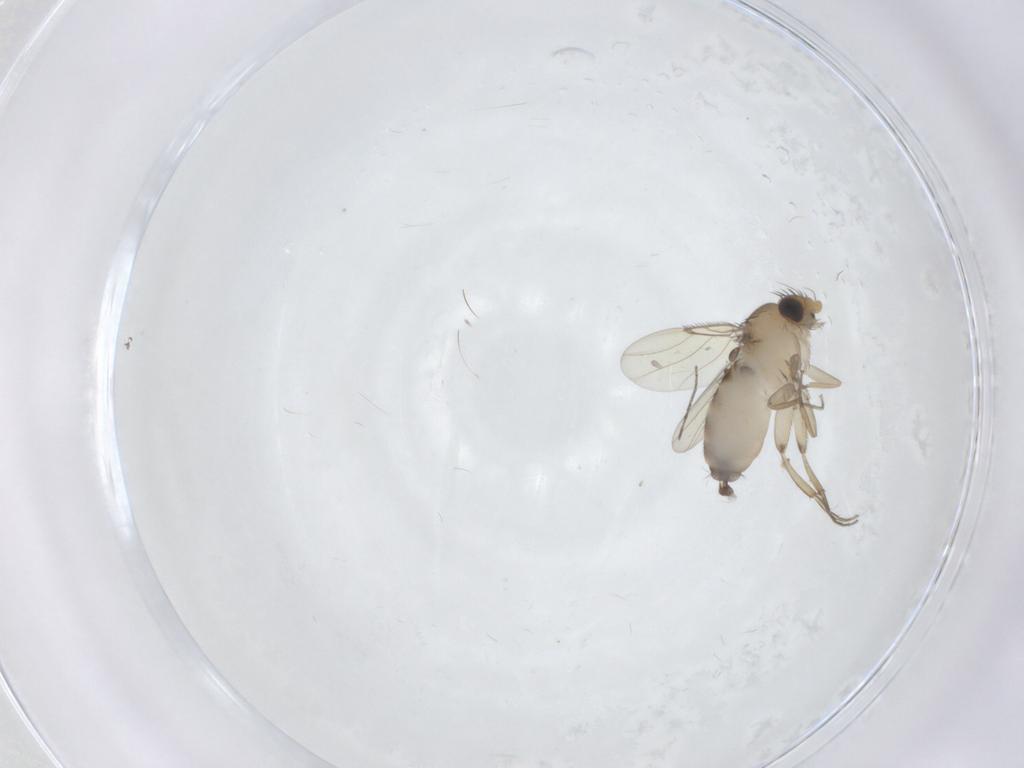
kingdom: Animalia
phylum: Arthropoda
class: Insecta
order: Diptera
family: Phoridae
